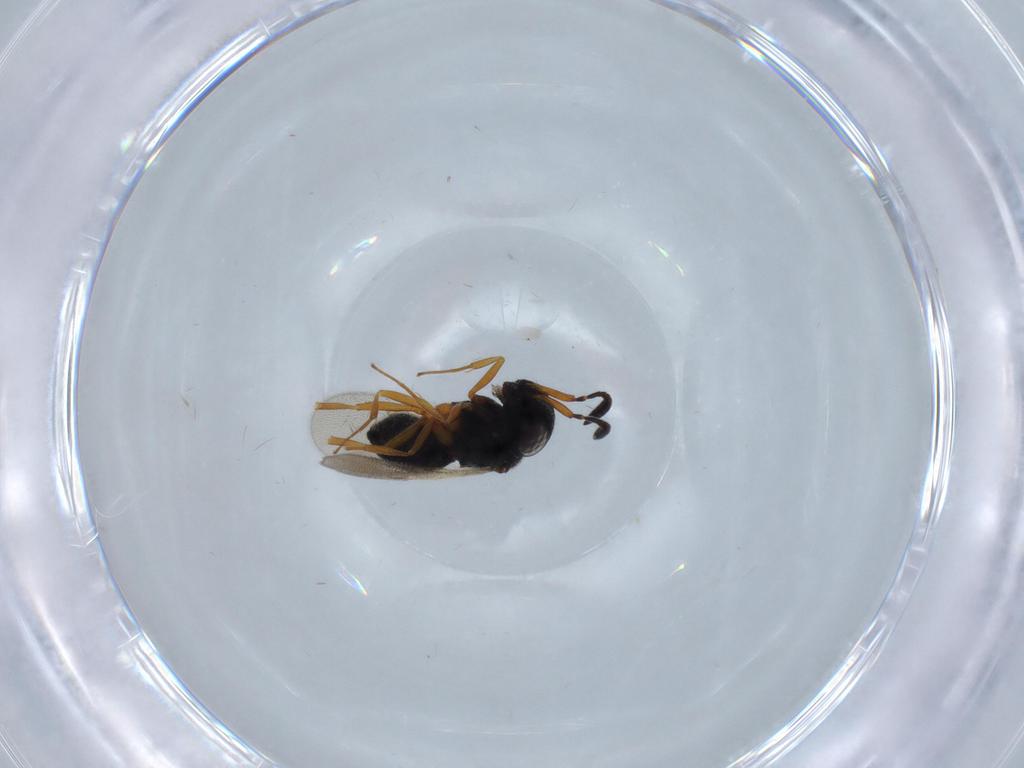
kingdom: Animalia
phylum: Arthropoda
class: Insecta
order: Hymenoptera
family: Scelionidae
